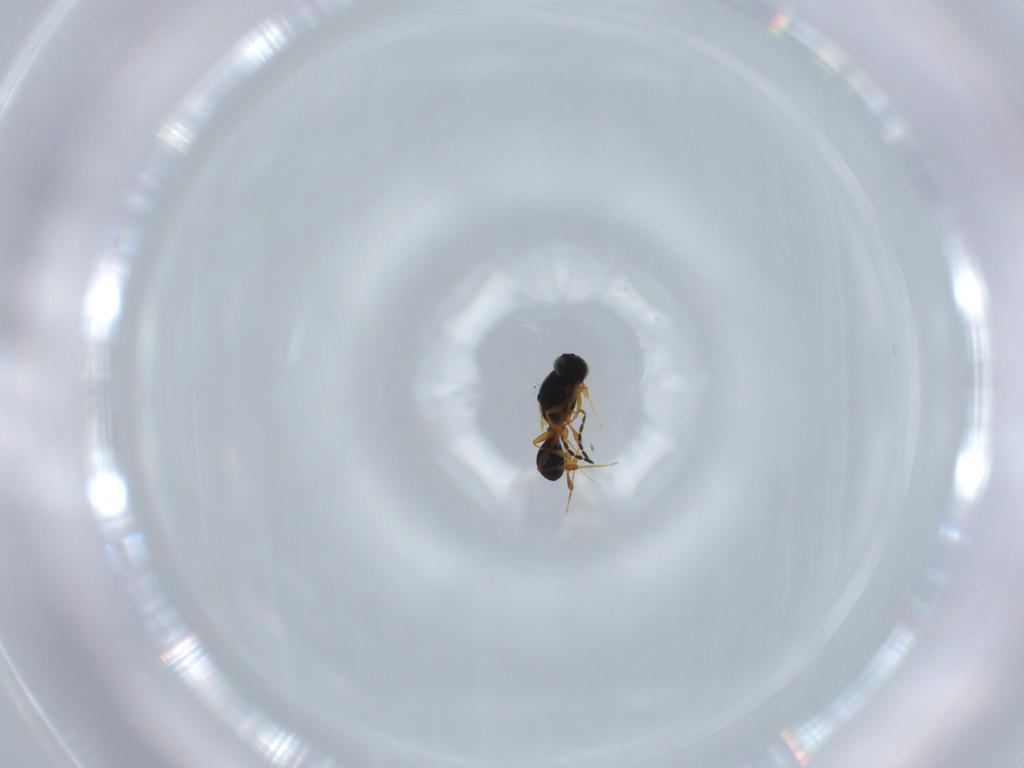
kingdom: Animalia
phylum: Arthropoda
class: Insecta
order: Hymenoptera
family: Platygastridae
